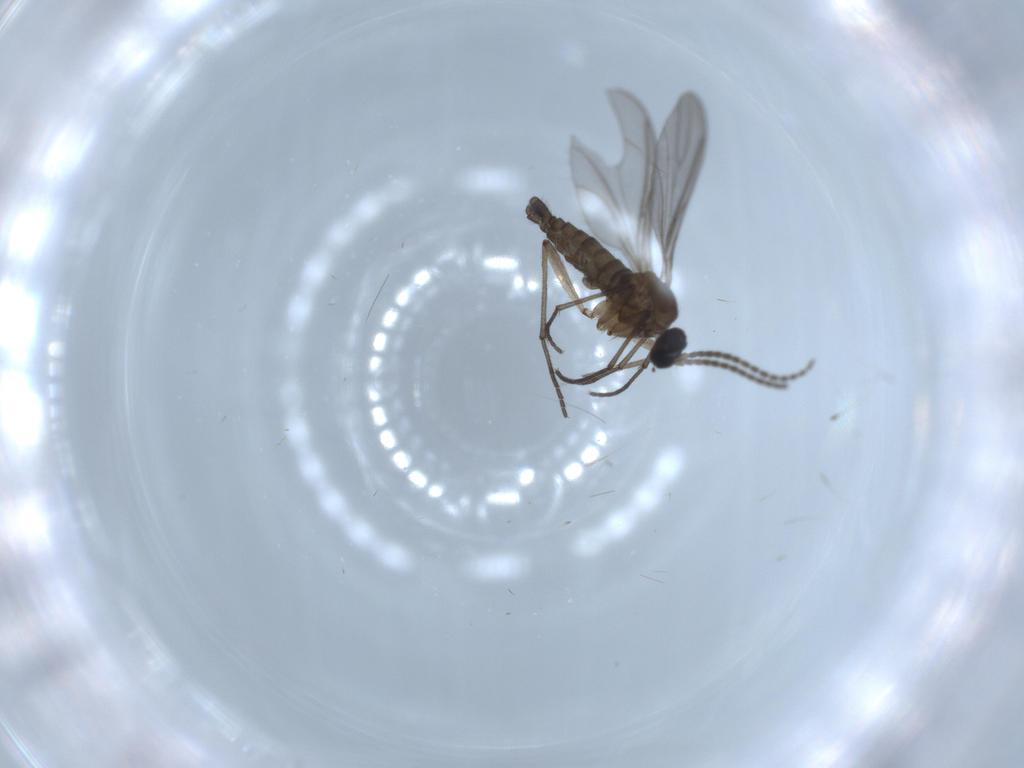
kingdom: Animalia
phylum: Arthropoda
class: Insecta
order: Diptera
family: Sciaridae
